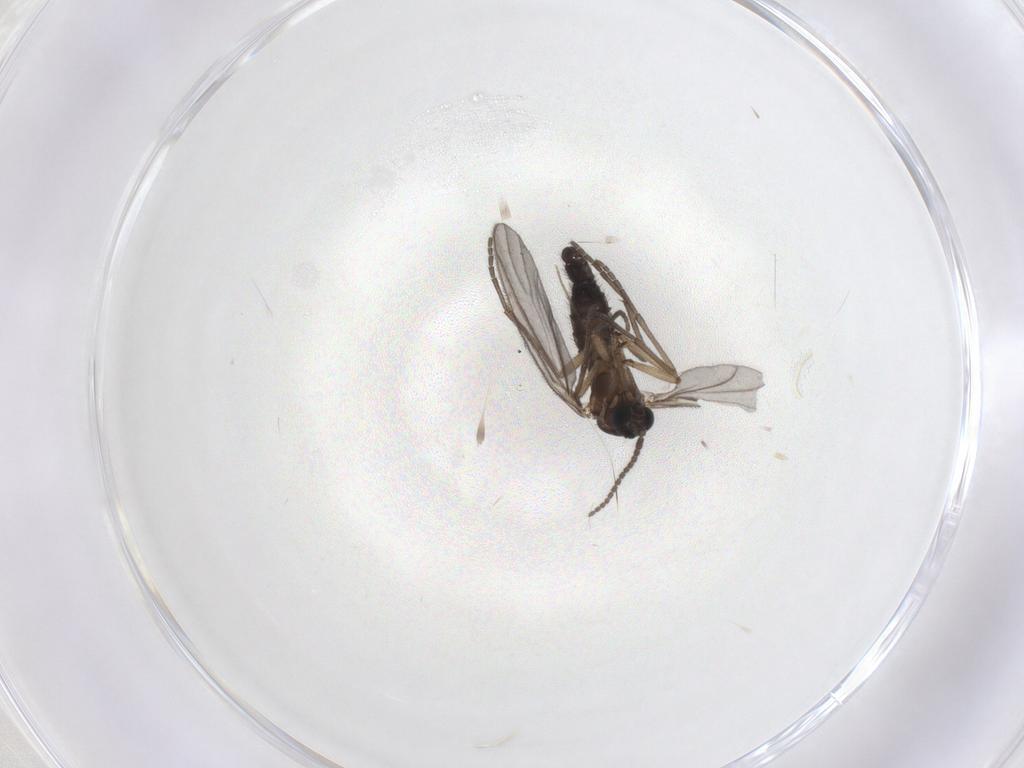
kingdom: Animalia
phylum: Arthropoda
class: Insecta
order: Diptera
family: Sciaridae
